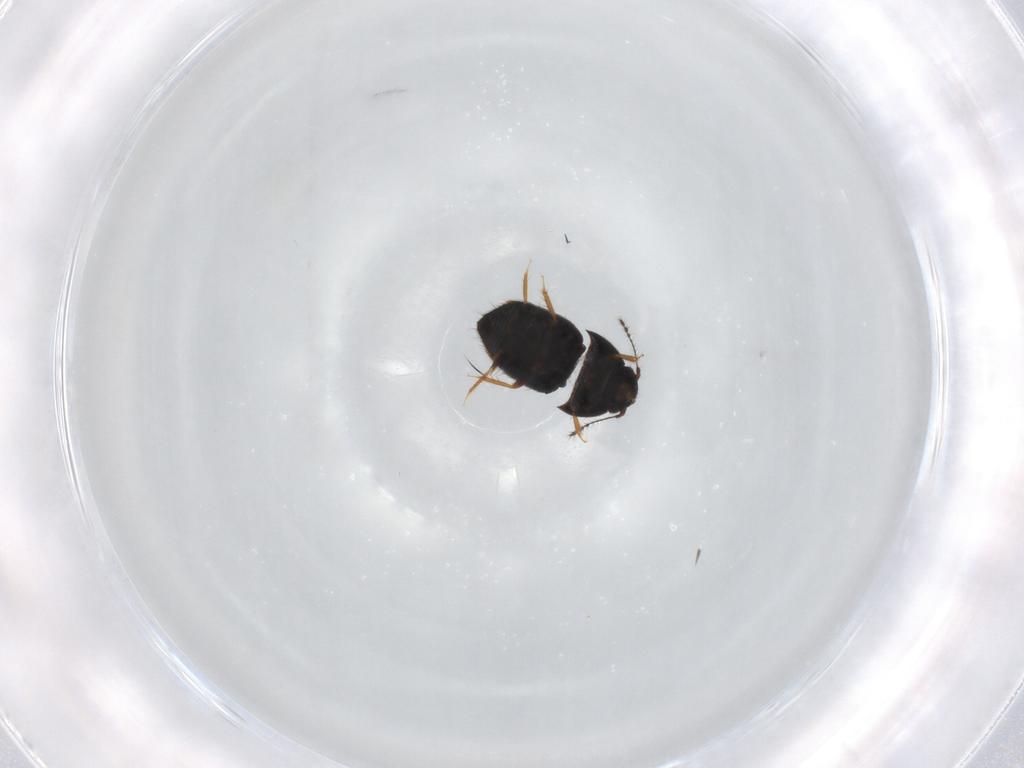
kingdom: Animalia
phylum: Arthropoda
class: Insecta
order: Coleoptera
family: Ptiliidae
